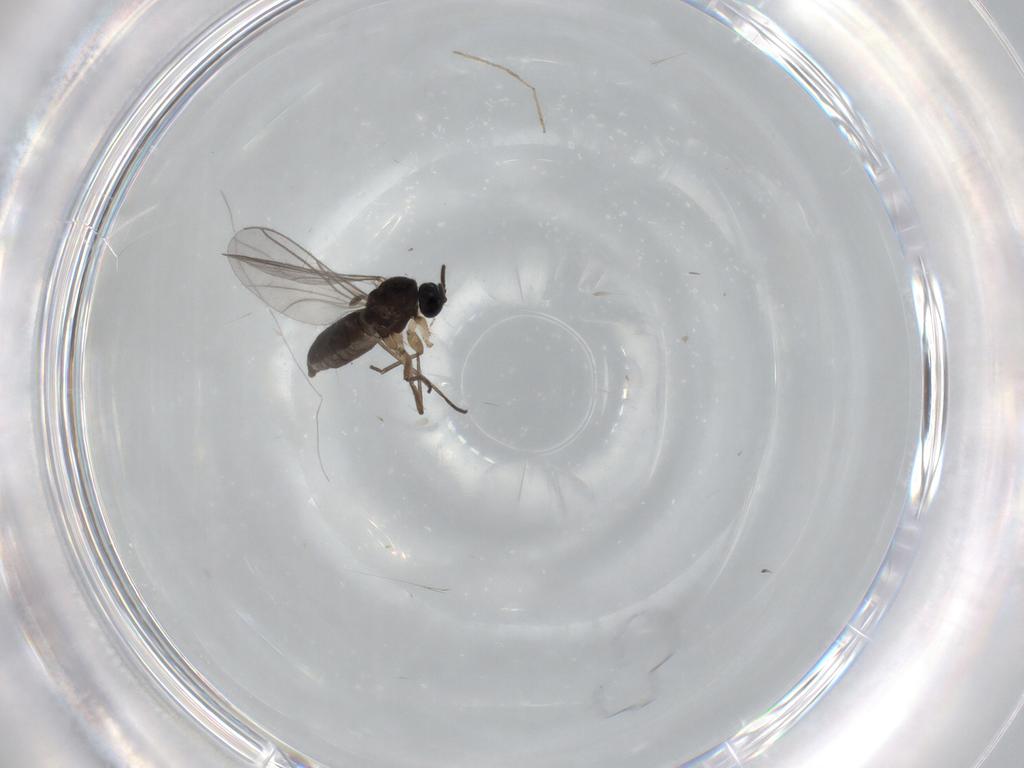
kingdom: Animalia
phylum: Arthropoda
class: Insecta
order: Diptera
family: Sciaridae
